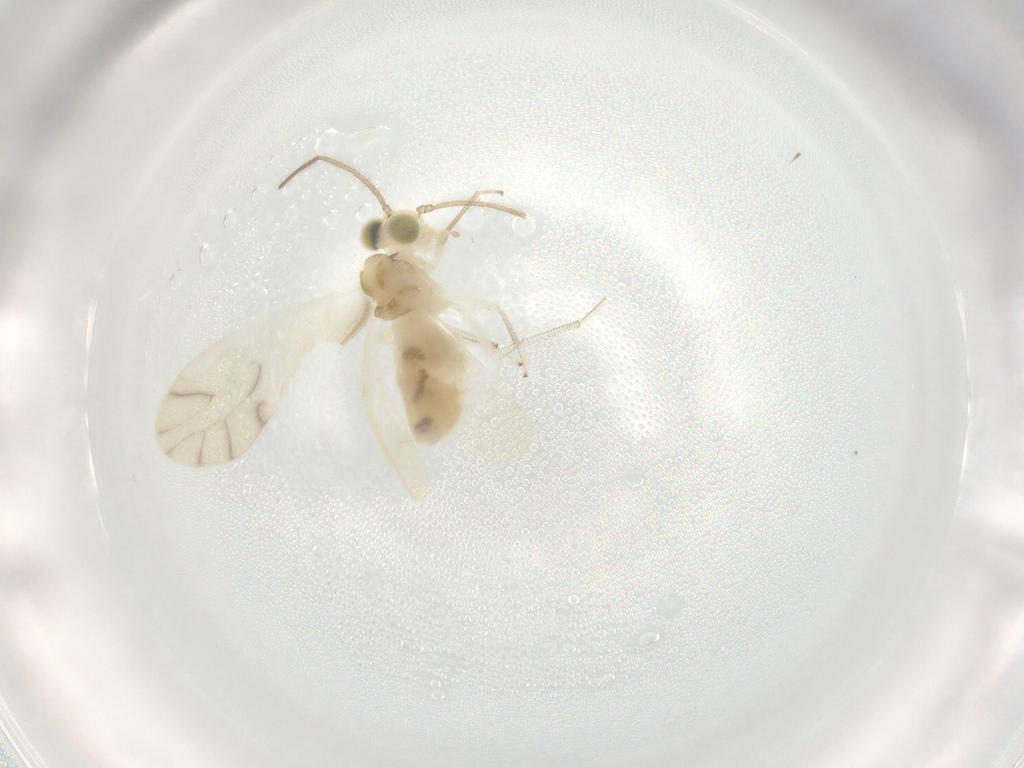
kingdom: Animalia
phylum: Arthropoda
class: Insecta
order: Psocodea
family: Caeciliusidae
